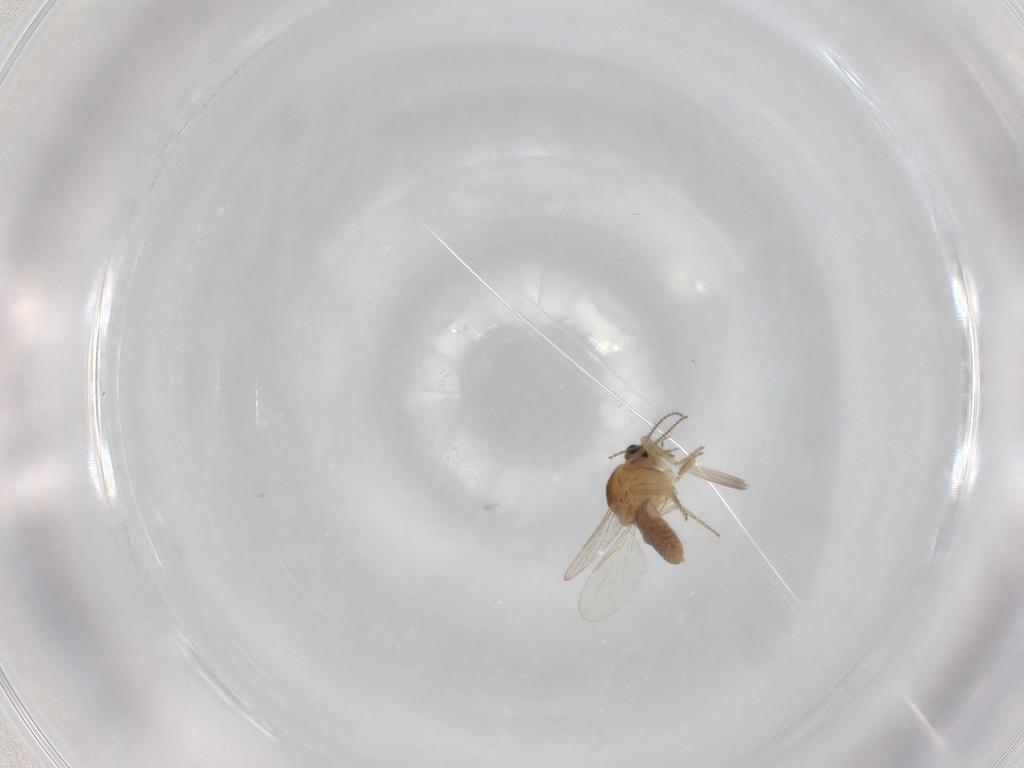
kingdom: Animalia
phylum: Arthropoda
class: Insecta
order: Diptera
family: Ceratopogonidae
